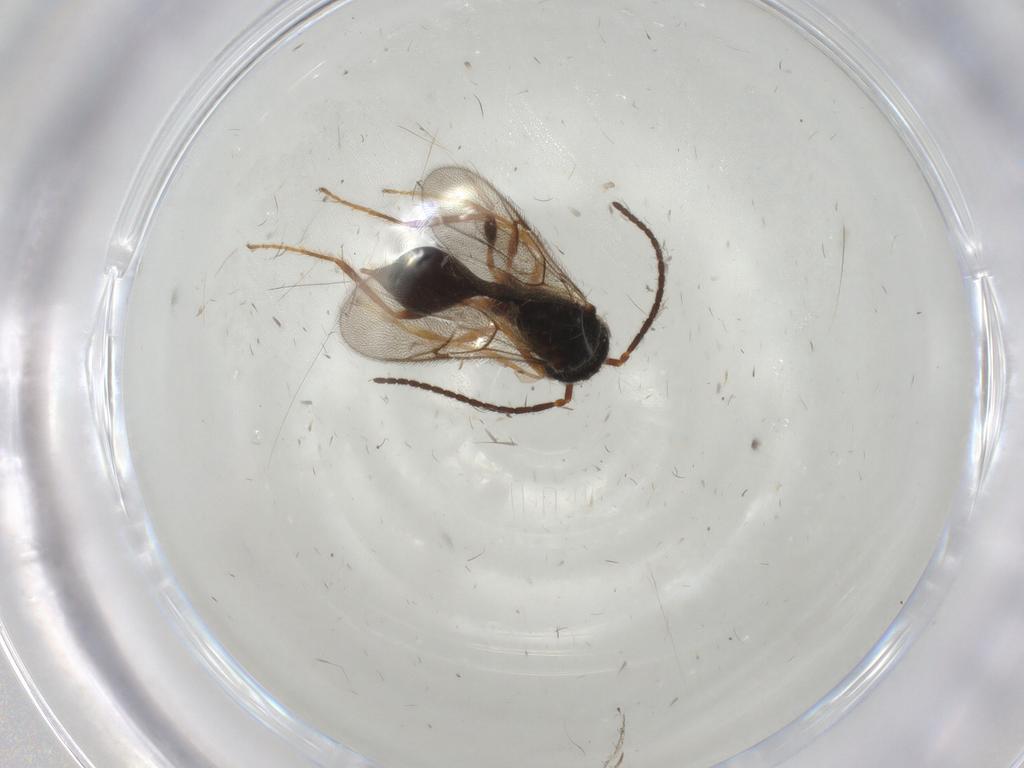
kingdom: Animalia
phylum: Arthropoda
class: Insecta
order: Hymenoptera
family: Braconidae
